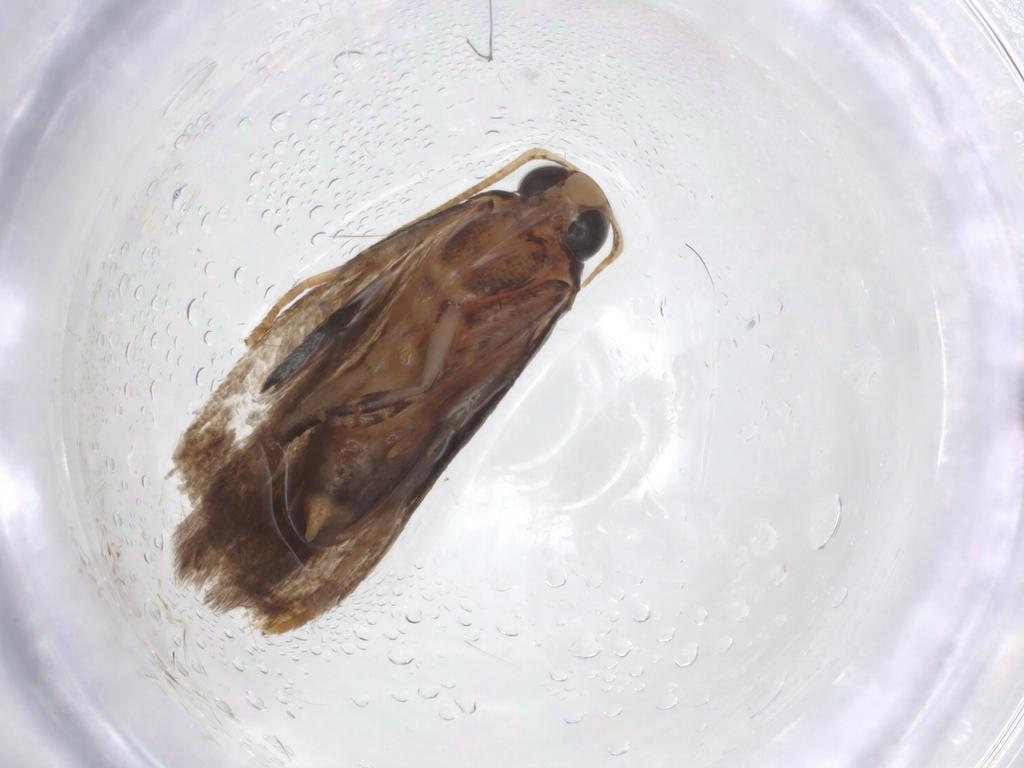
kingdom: Animalia
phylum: Arthropoda
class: Insecta
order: Lepidoptera
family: Gelechiidae
